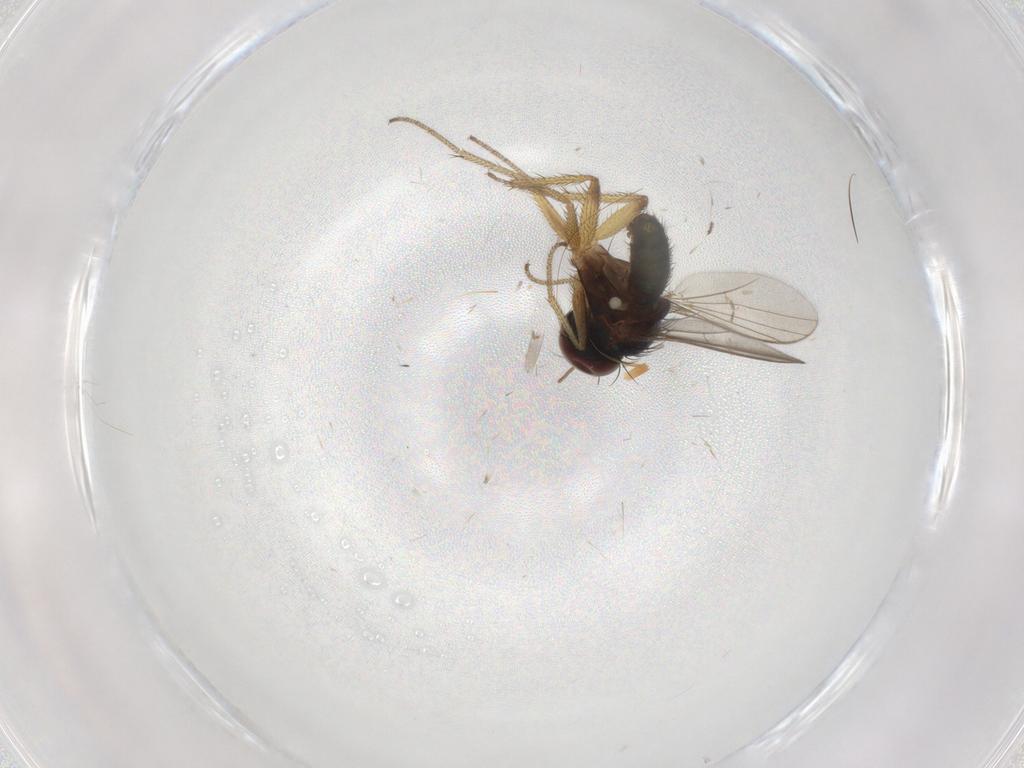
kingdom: Animalia
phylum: Arthropoda
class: Insecta
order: Diptera
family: Chironomidae
